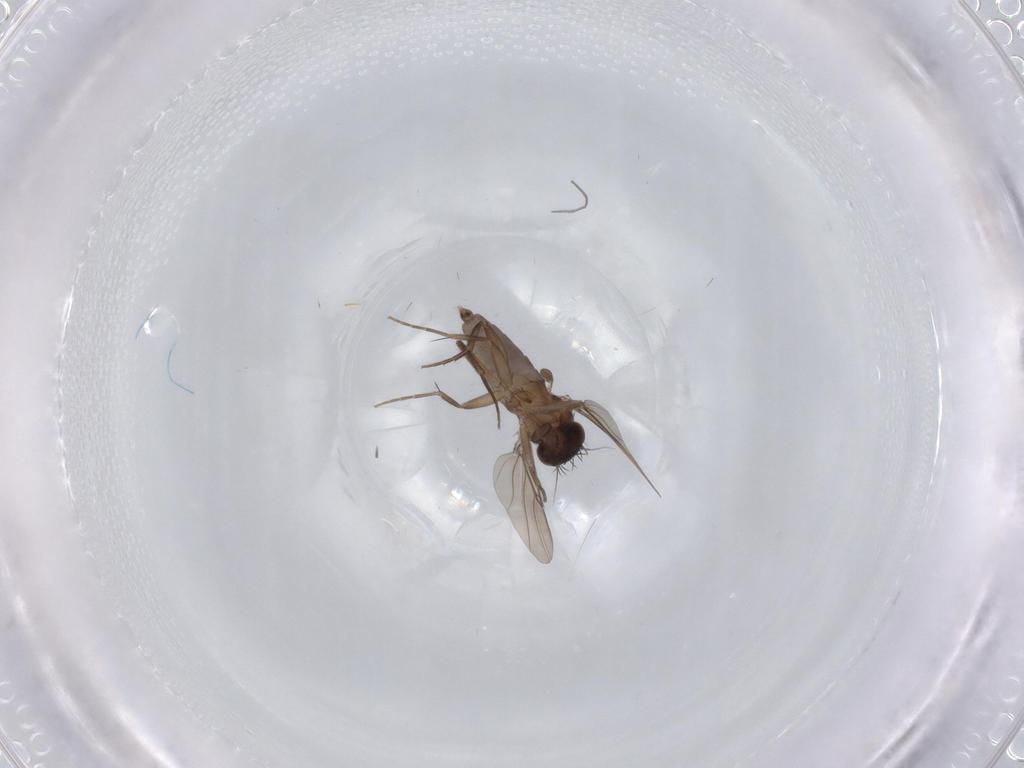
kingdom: Animalia
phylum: Arthropoda
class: Insecta
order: Diptera
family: Phoridae
